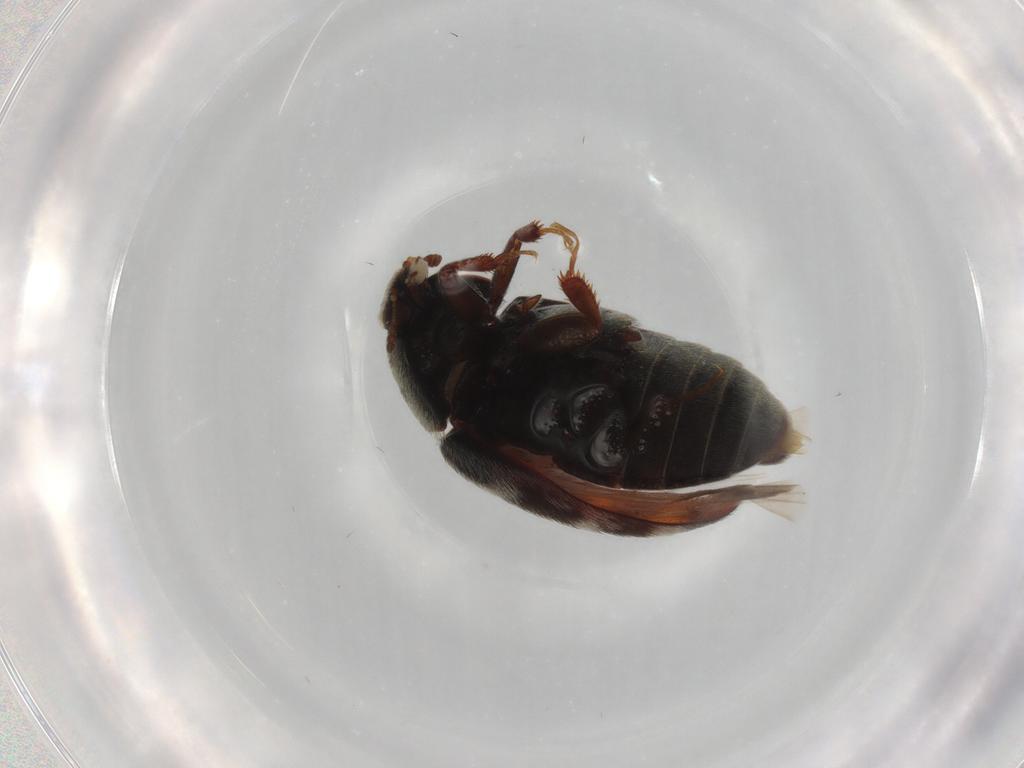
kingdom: Animalia
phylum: Arthropoda
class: Insecta
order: Coleoptera
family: Dermestidae
